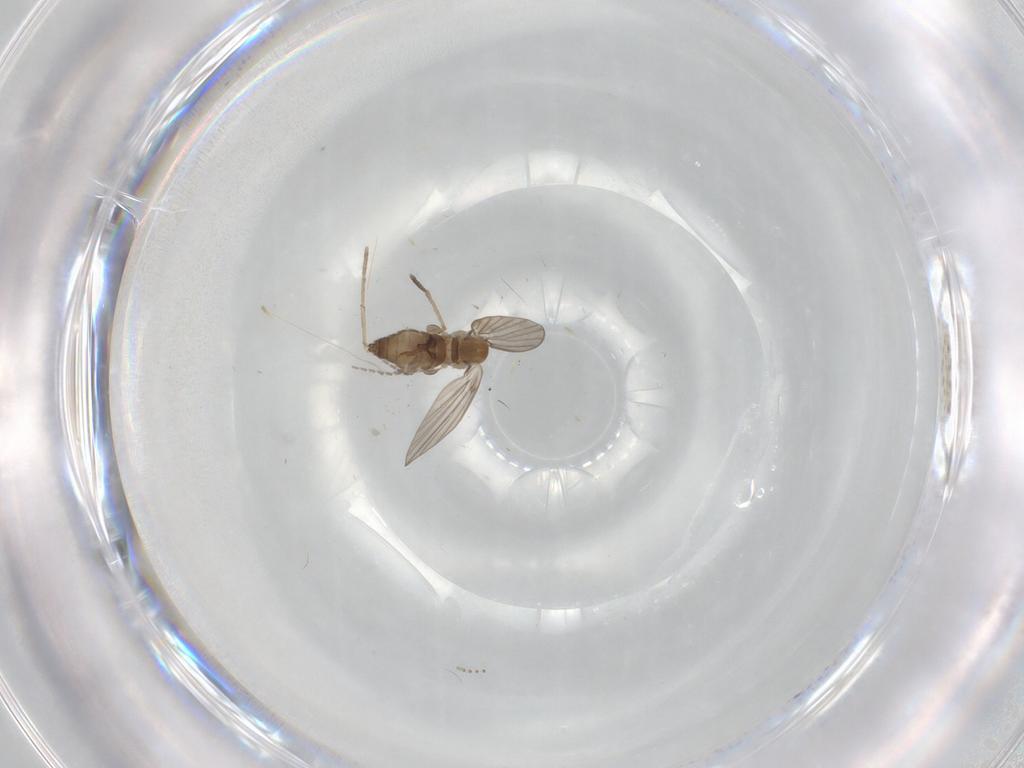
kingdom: Animalia
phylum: Arthropoda
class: Insecta
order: Diptera
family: Psychodidae
